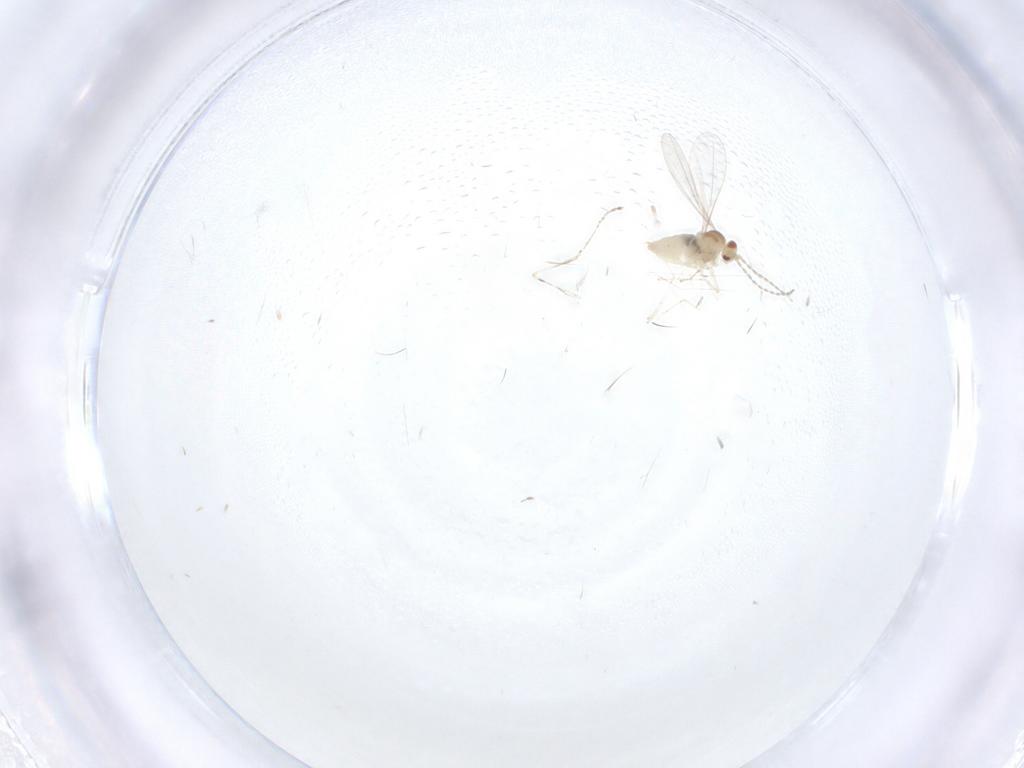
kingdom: Animalia
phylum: Arthropoda
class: Insecta
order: Diptera
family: Cecidomyiidae
